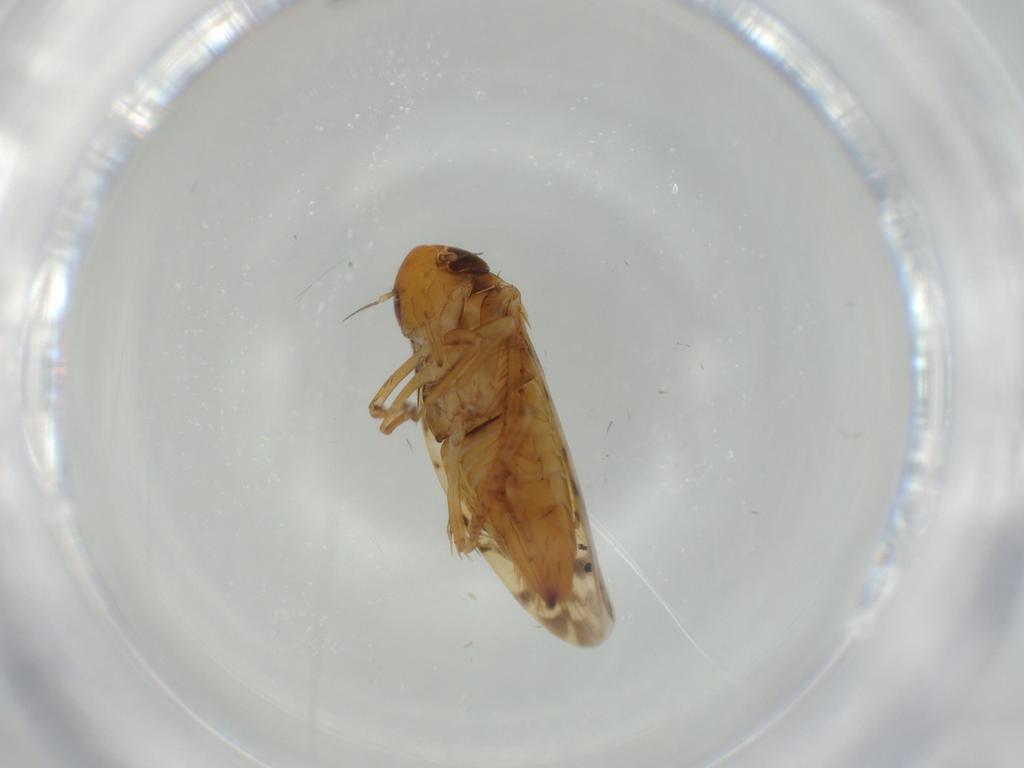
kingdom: Animalia
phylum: Arthropoda
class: Insecta
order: Hemiptera
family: Cicadellidae
